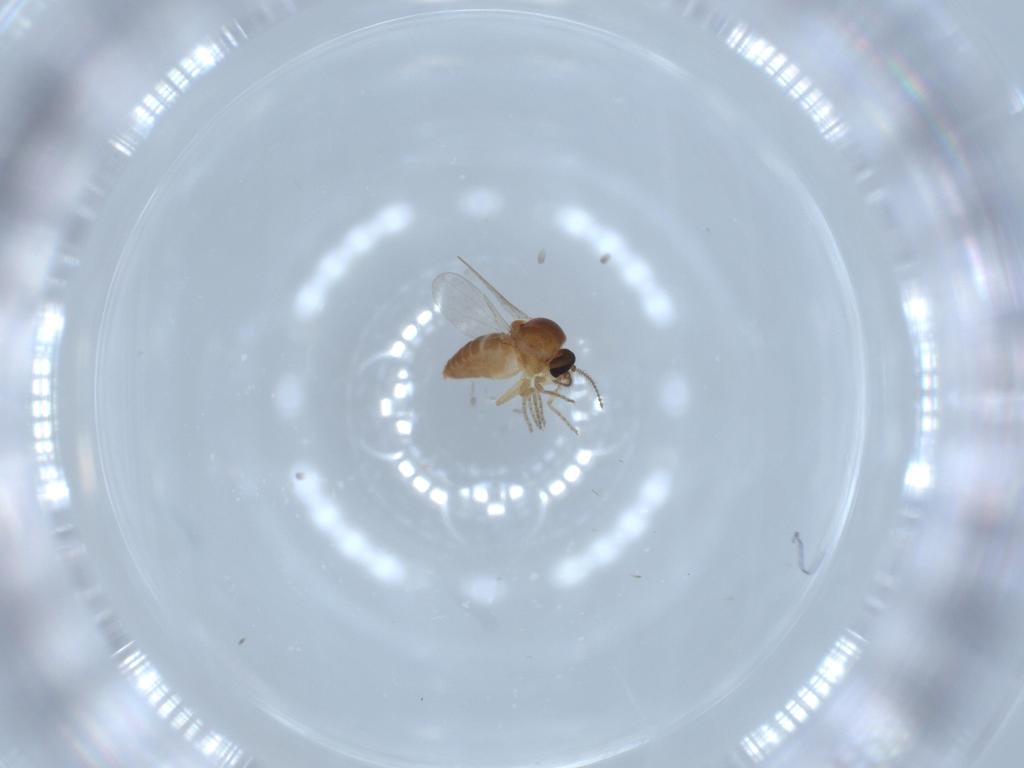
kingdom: Animalia
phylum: Arthropoda
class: Insecta
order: Diptera
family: Ceratopogonidae
